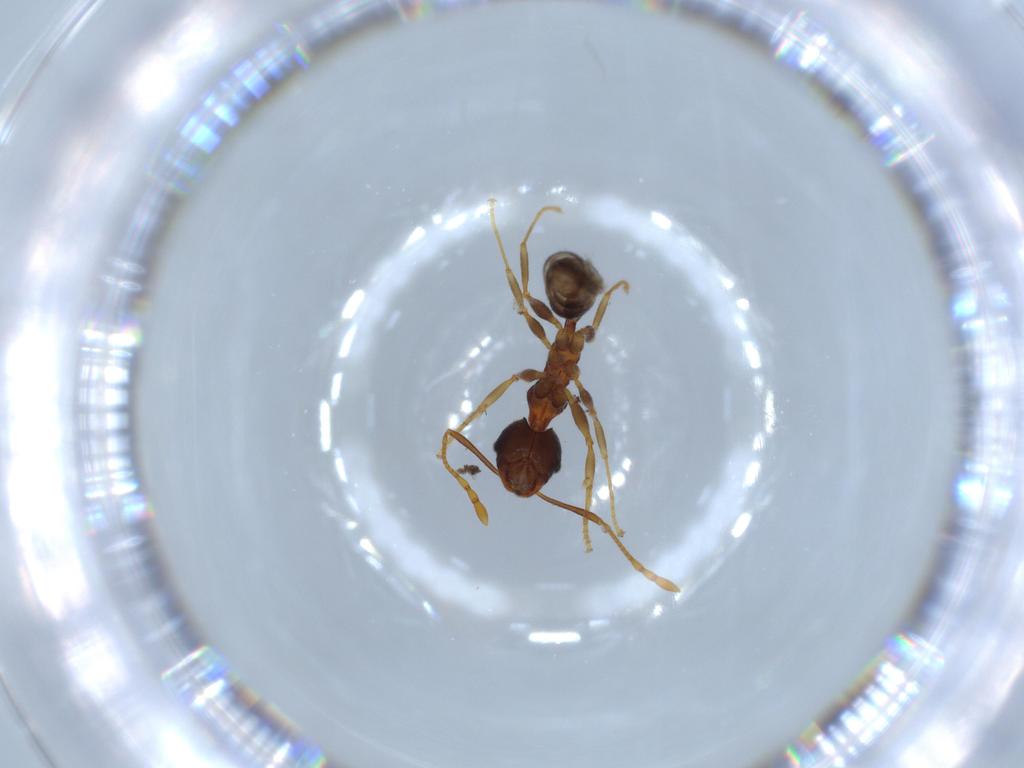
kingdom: Animalia
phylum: Arthropoda
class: Insecta
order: Hymenoptera
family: Formicidae
